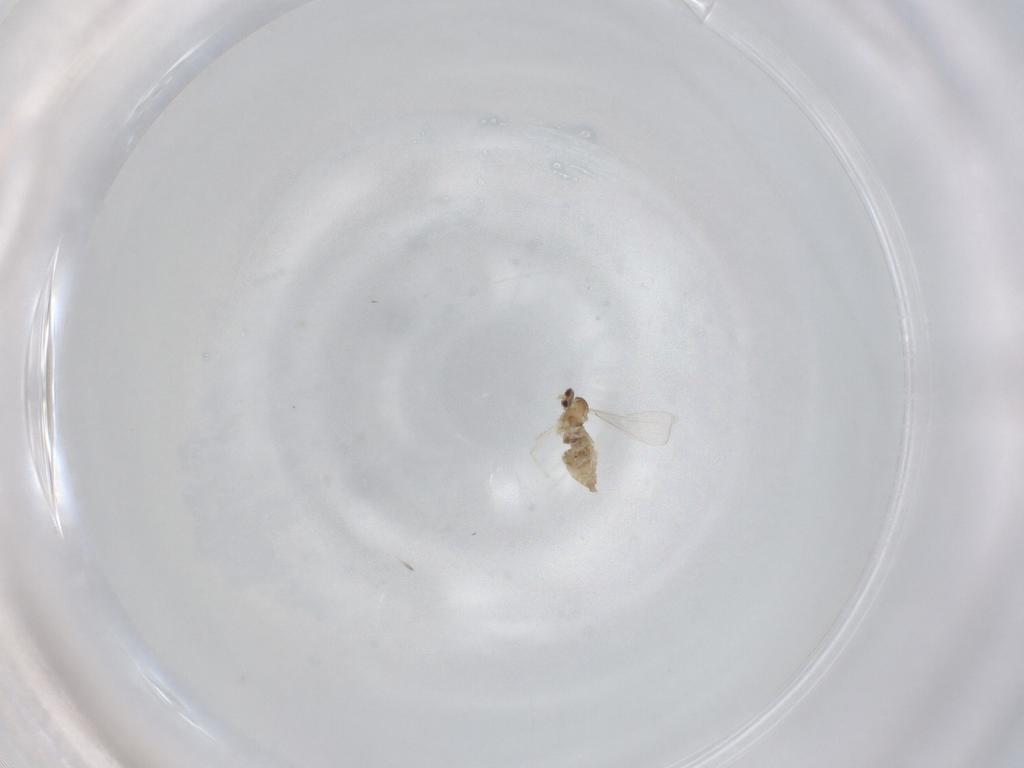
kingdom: Animalia
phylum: Arthropoda
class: Insecta
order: Diptera
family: Cecidomyiidae
